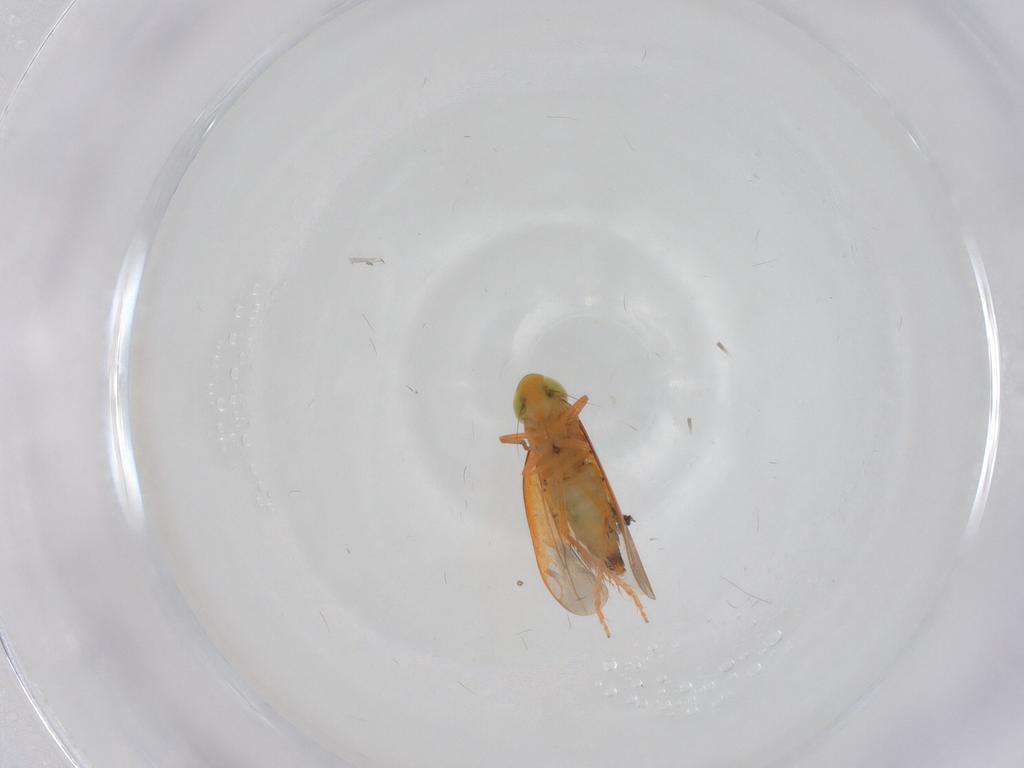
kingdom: Animalia
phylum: Arthropoda
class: Insecta
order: Hemiptera
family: Cicadellidae
